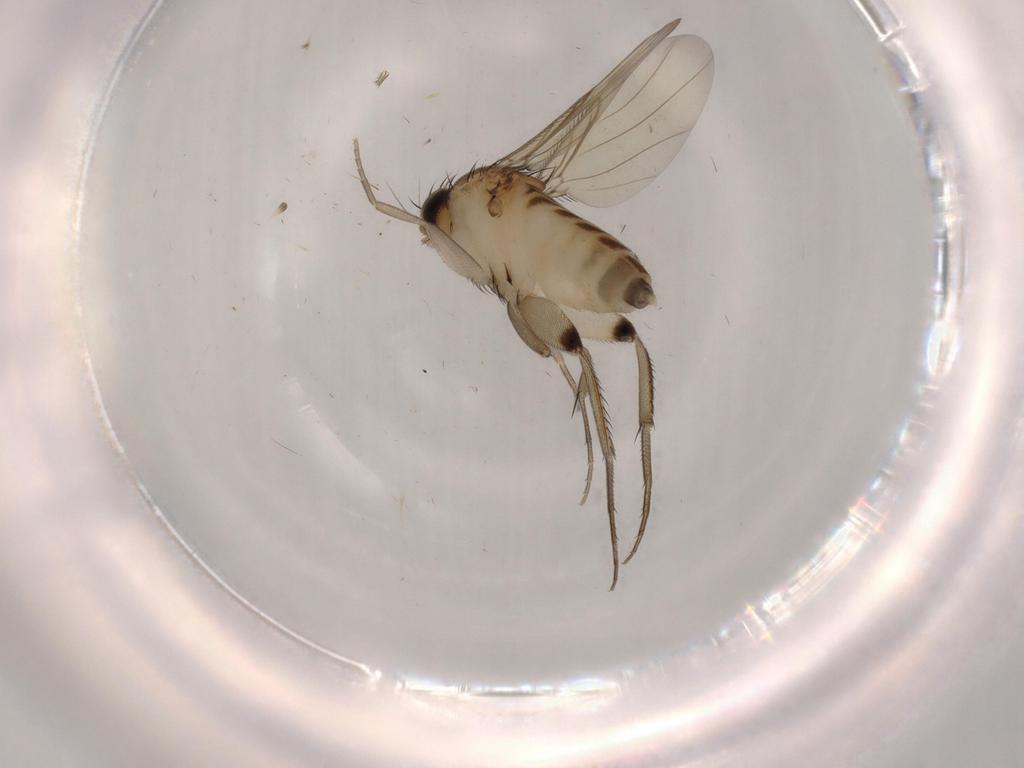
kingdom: Animalia
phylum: Arthropoda
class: Insecta
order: Diptera
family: Phoridae
